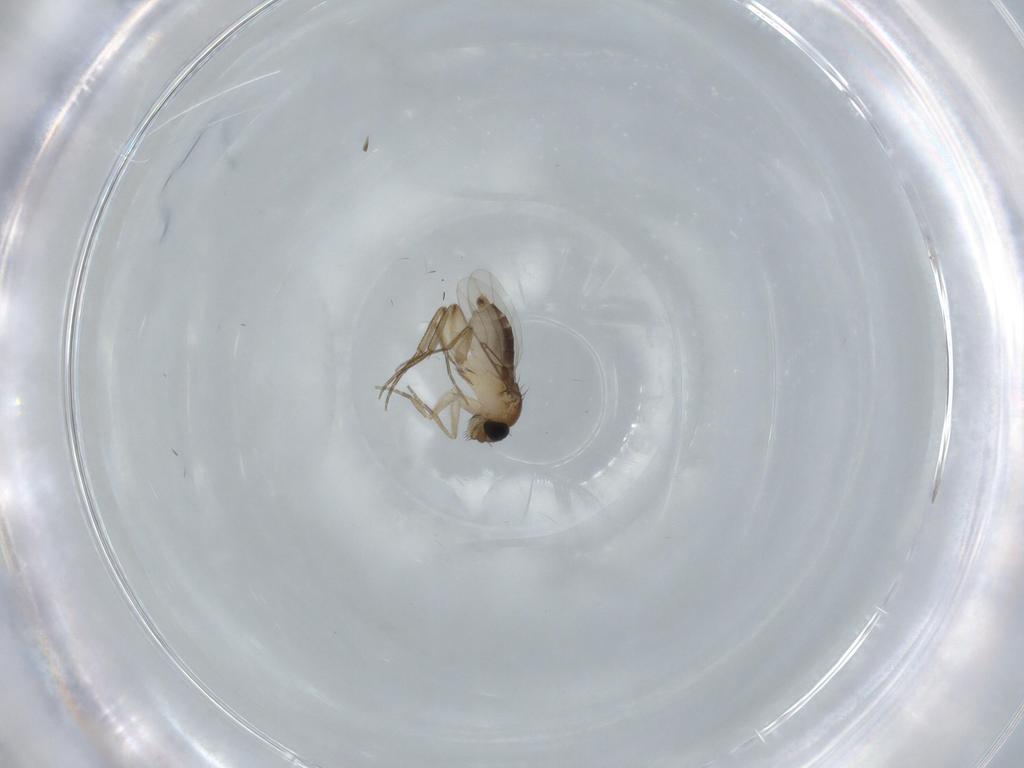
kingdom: Animalia
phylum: Arthropoda
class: Insecta
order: Diptera
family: Phoridae
